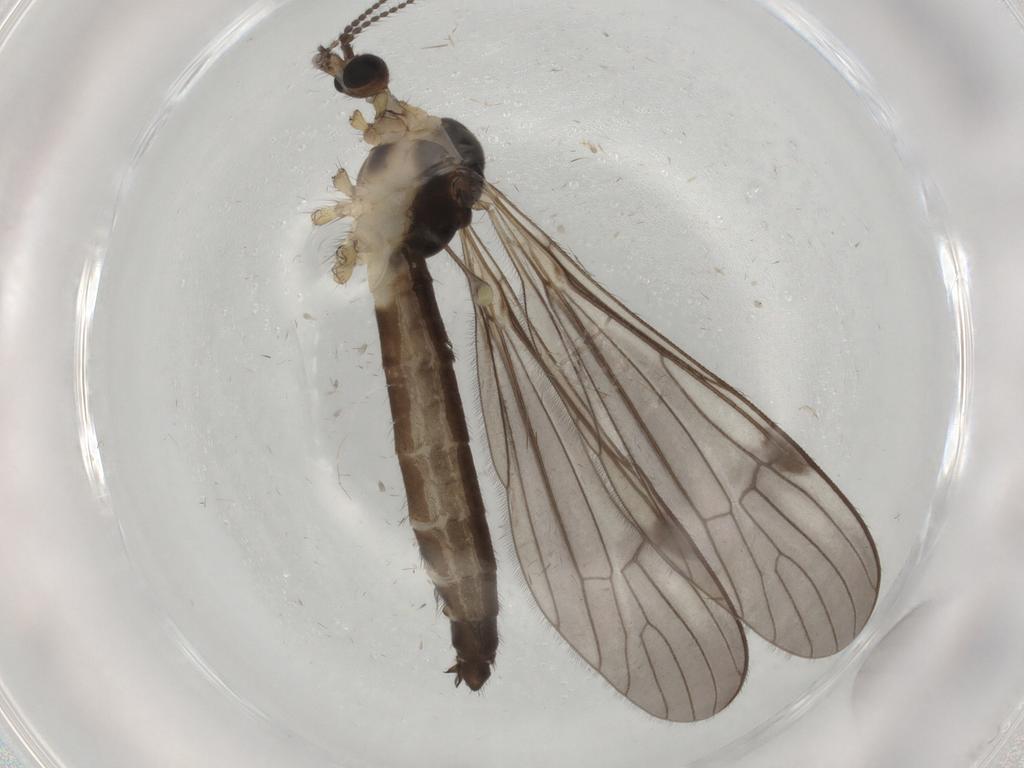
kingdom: Animalia
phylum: Arthropoda
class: Insecta
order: Diptera
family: Limoniidae
